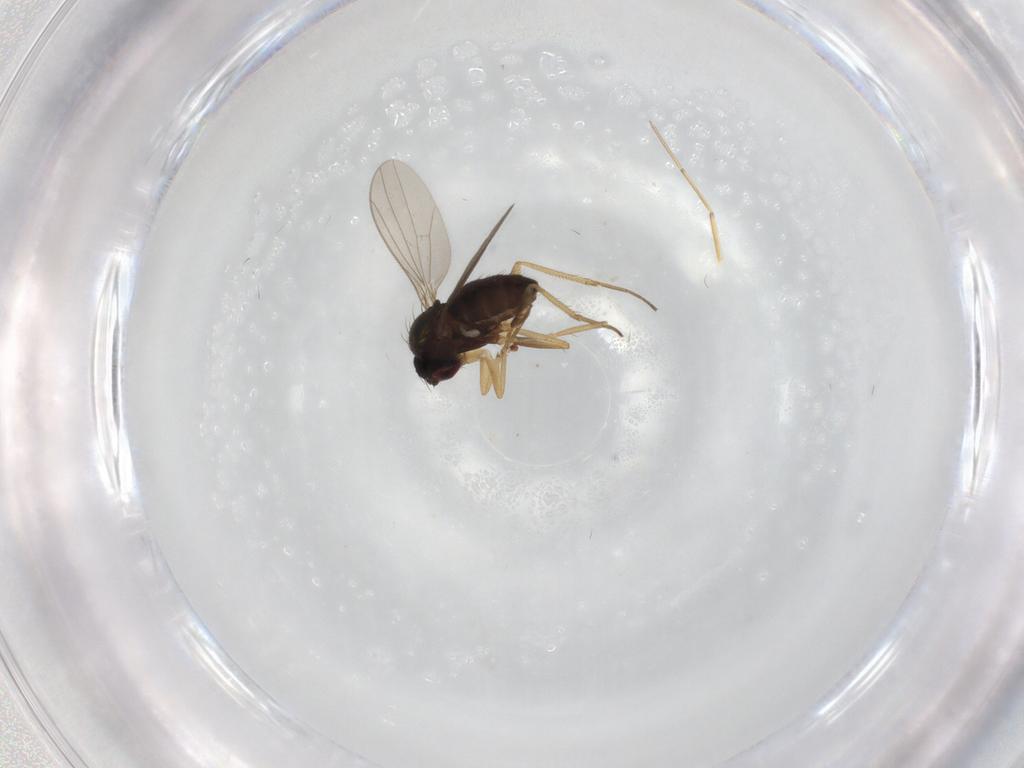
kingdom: Animalia
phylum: Arthropoda
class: Insecta
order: Diptera
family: Dolichopodidae
